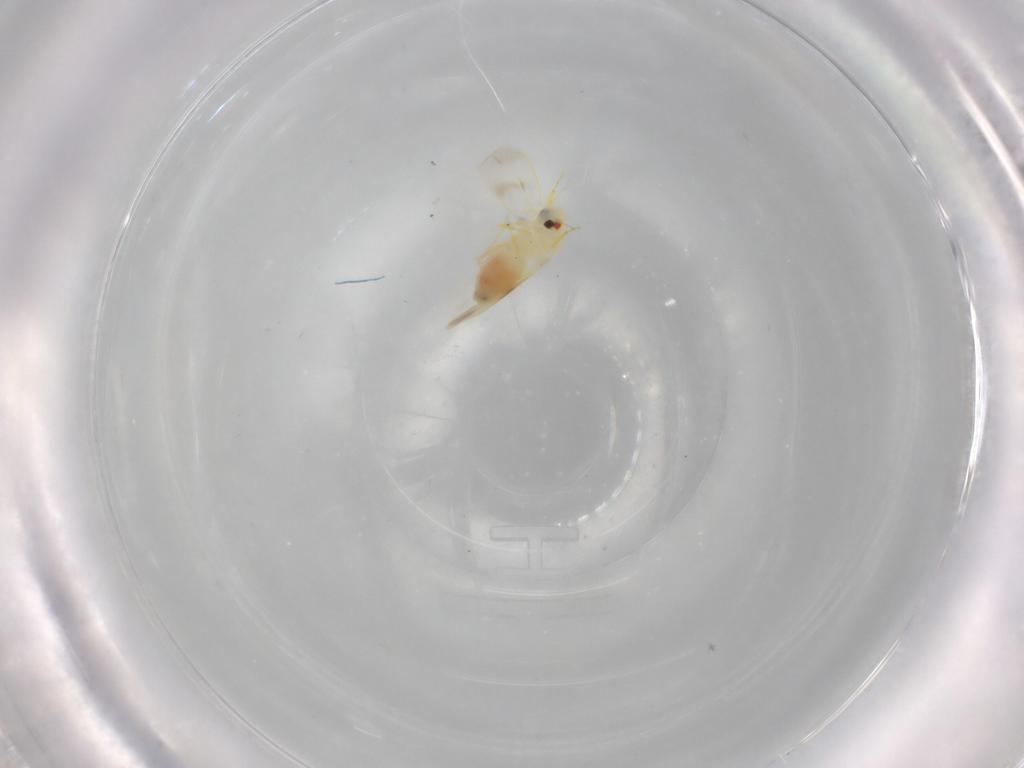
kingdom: Animalia
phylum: Arthropoda
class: Insecta
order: Hemiptera
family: Aleyrodidae
